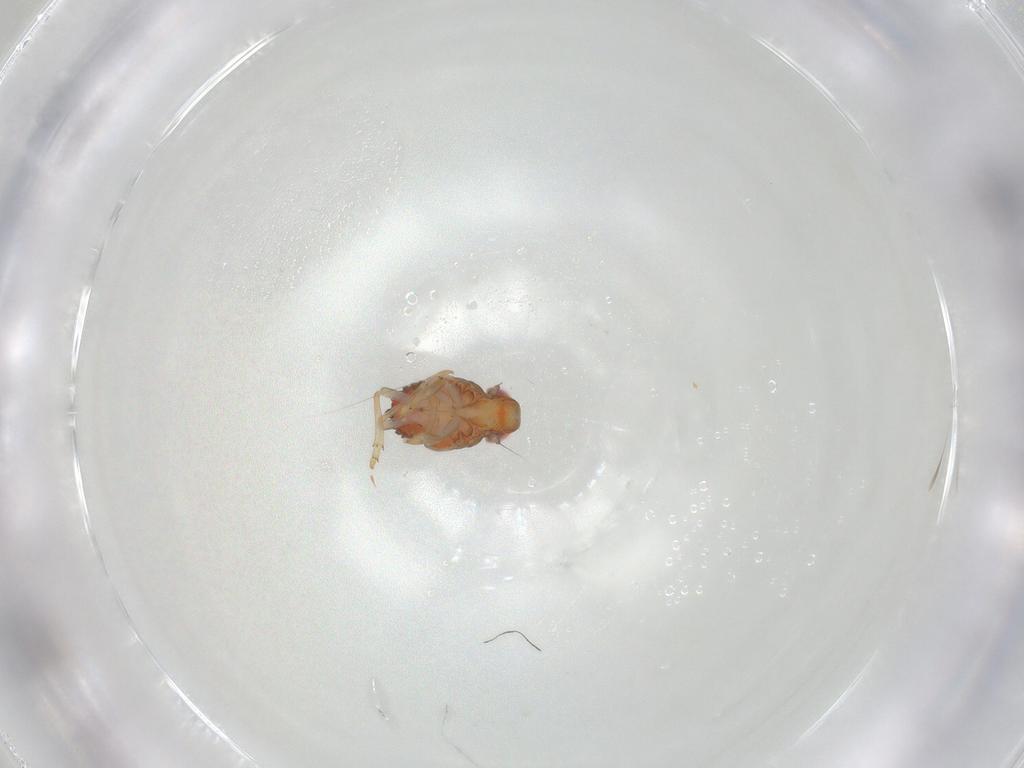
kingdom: Animalia
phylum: Arthropoda
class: Insecta
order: Hemiptera
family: Issidae
